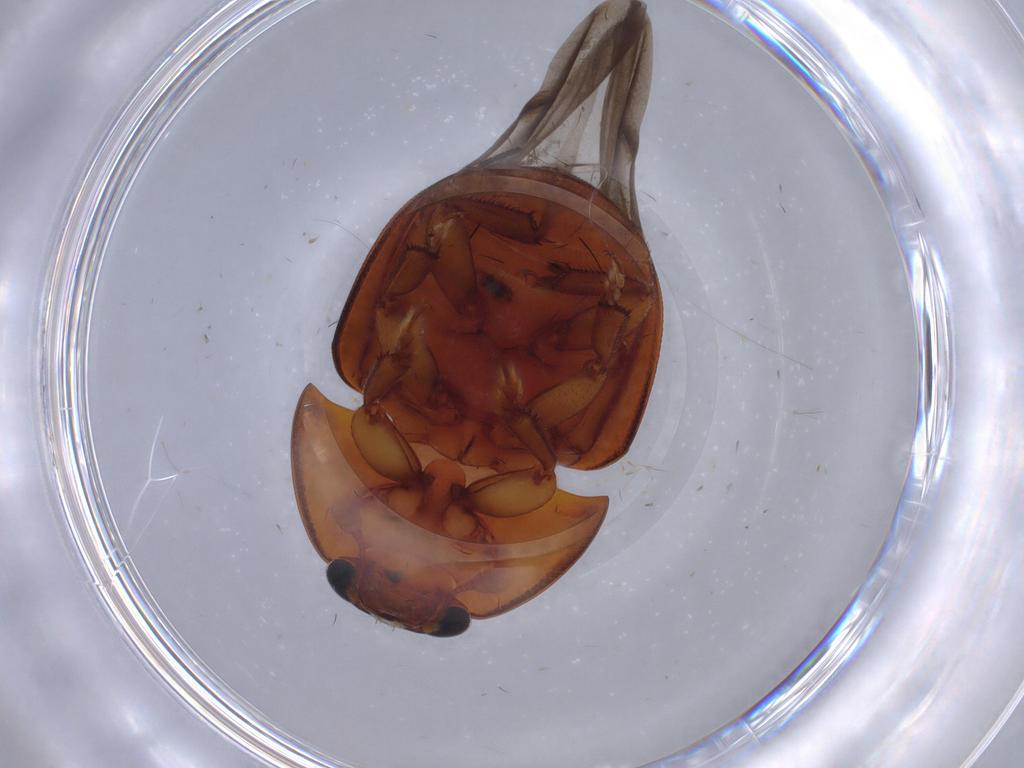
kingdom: Animalia
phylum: Arthropoda
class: Insecta
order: Coleoptera
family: Nitidulidae
